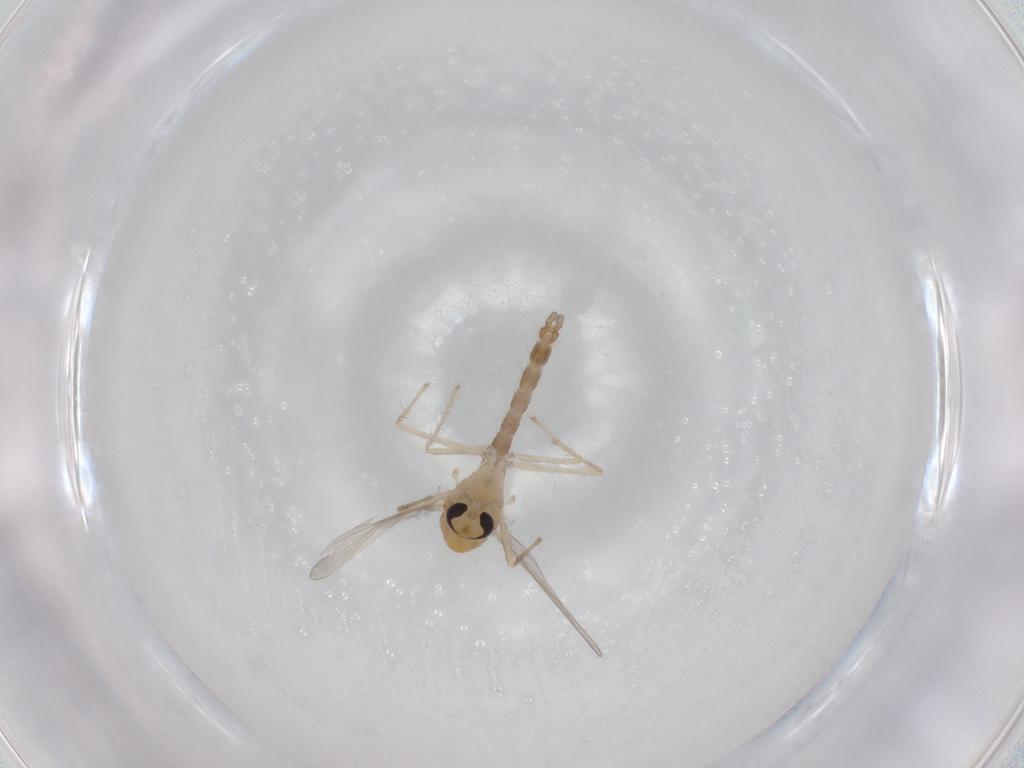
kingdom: Animalia
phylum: Arthropoda
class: Insecta
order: Diptera
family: Chironomidae
